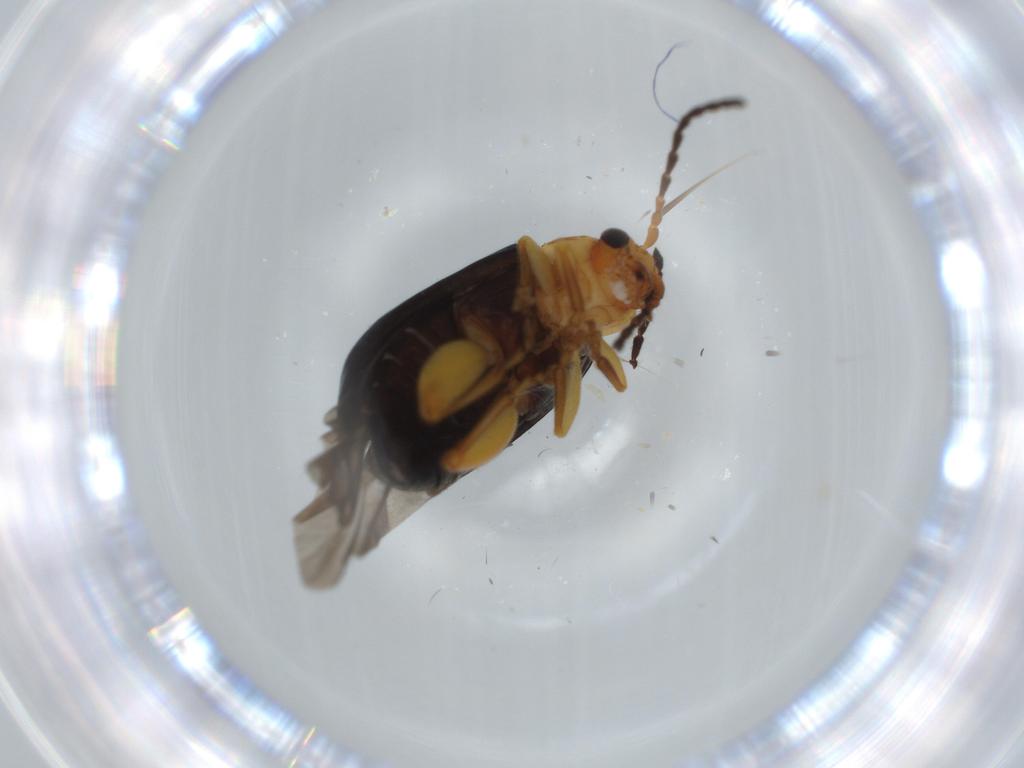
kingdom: Animalia
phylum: Arthropoda
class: Insecta
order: Coleoptera
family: Chrysomelidae
